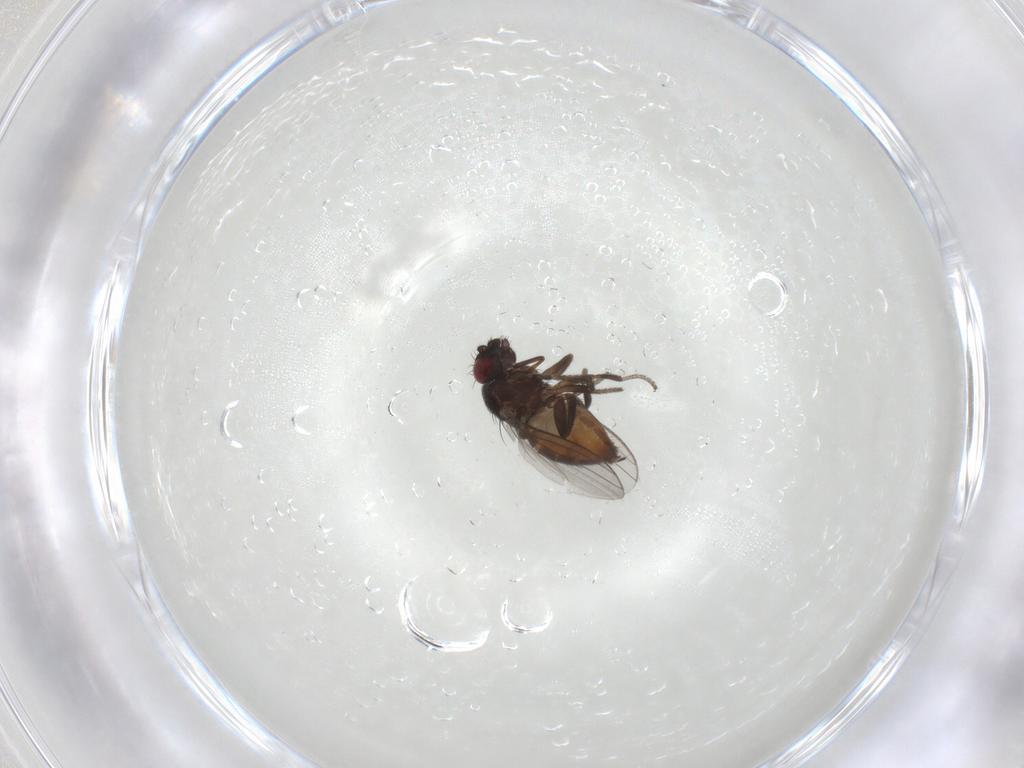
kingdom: Animalia
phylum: Arthropoda
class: Insecta
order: Diptera
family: Milichiidae
